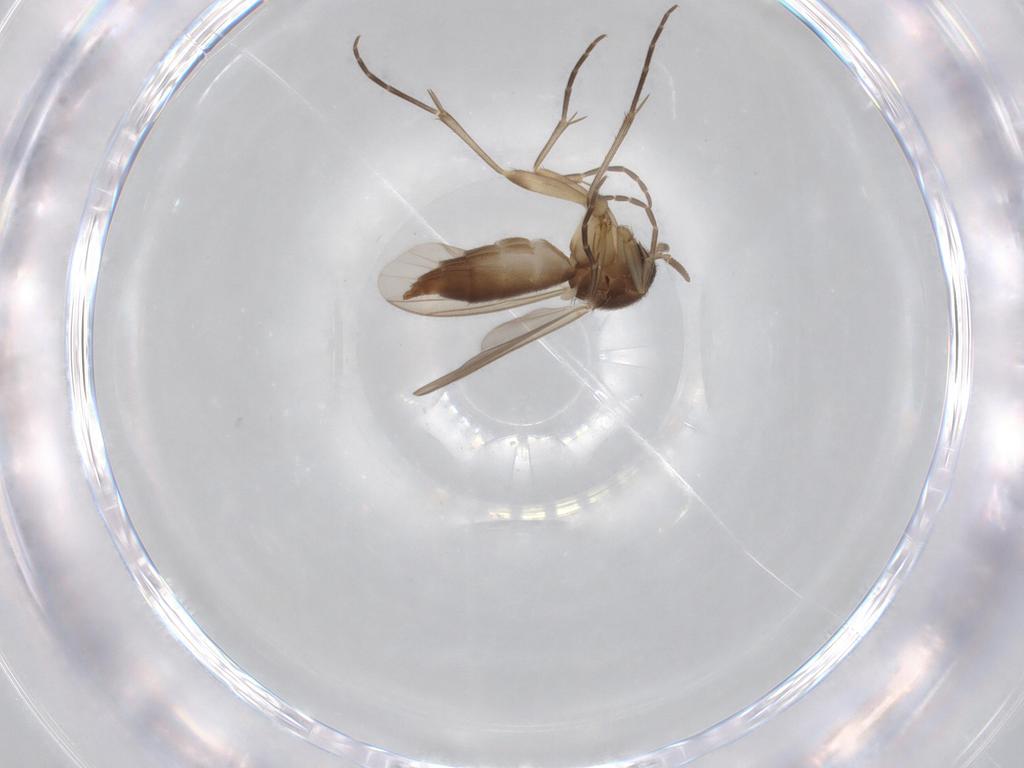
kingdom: Animalia
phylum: Arthropoda
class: Insecta
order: Diptera
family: Mycetophilidae
